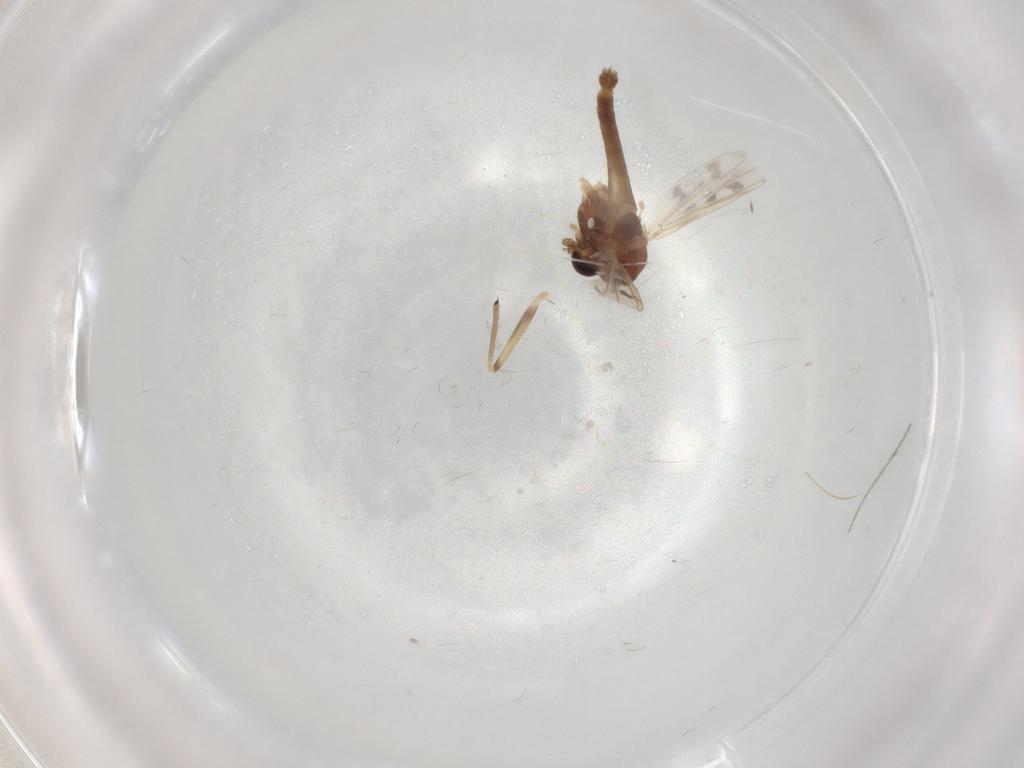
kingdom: Animalia
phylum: Arthropoda
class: Insecta
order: Diptera
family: Chironomidae
